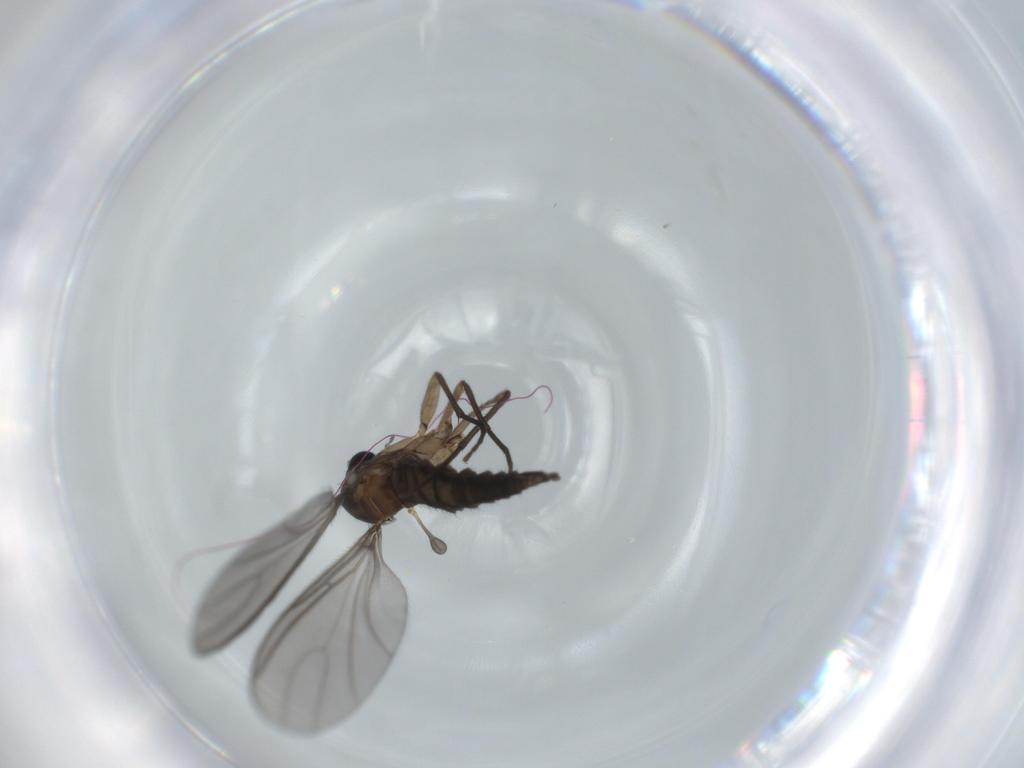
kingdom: Animalia
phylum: Arthropoda
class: Insecta
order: Diptera
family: Sciaridae
